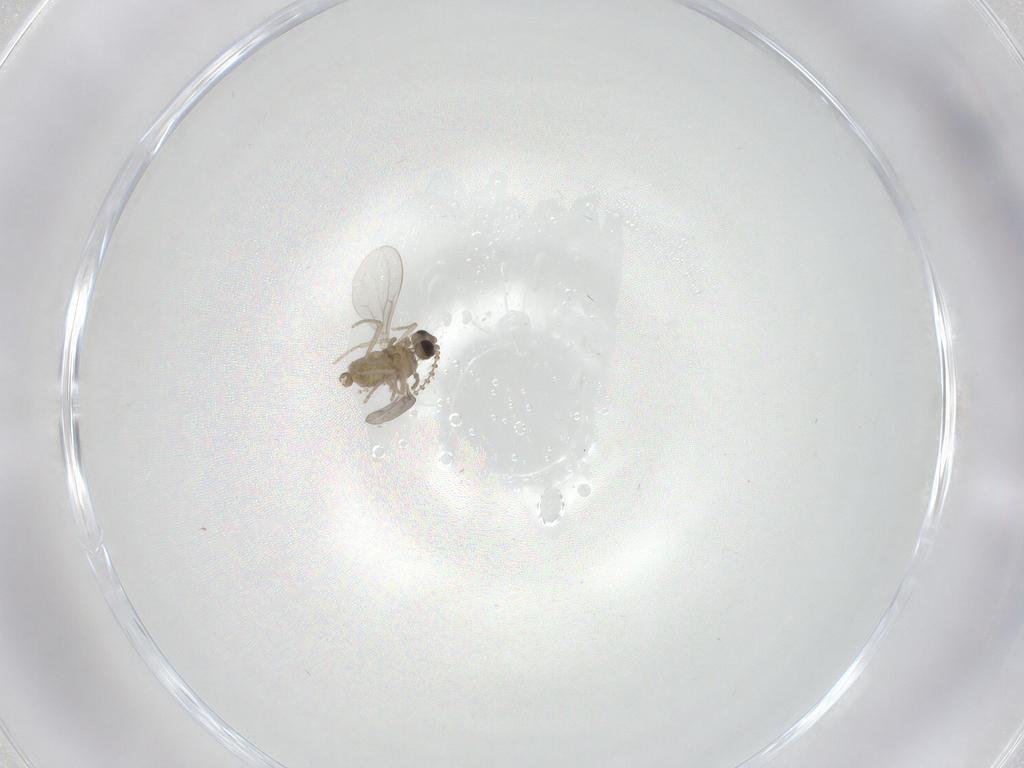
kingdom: Animalia
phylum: Arthropoda
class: Insecta
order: Diptera
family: Cecidomyiidae
